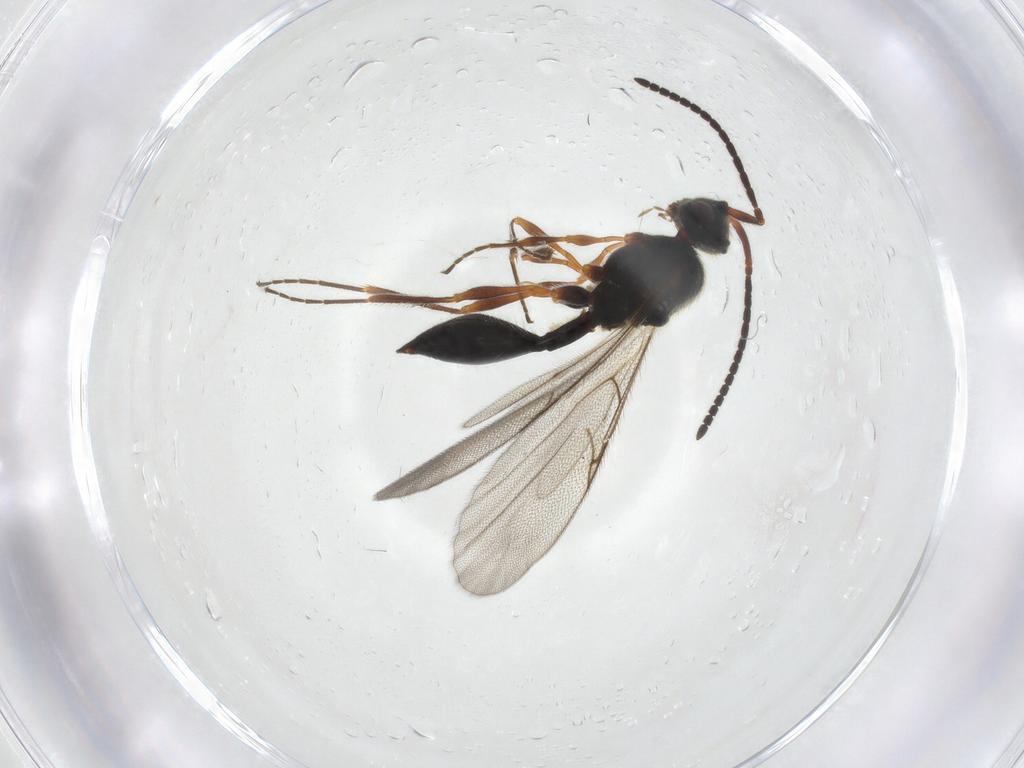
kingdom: Animalia
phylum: Arthropoda
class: Insecta
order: Hymenoptera
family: Diapriidae
